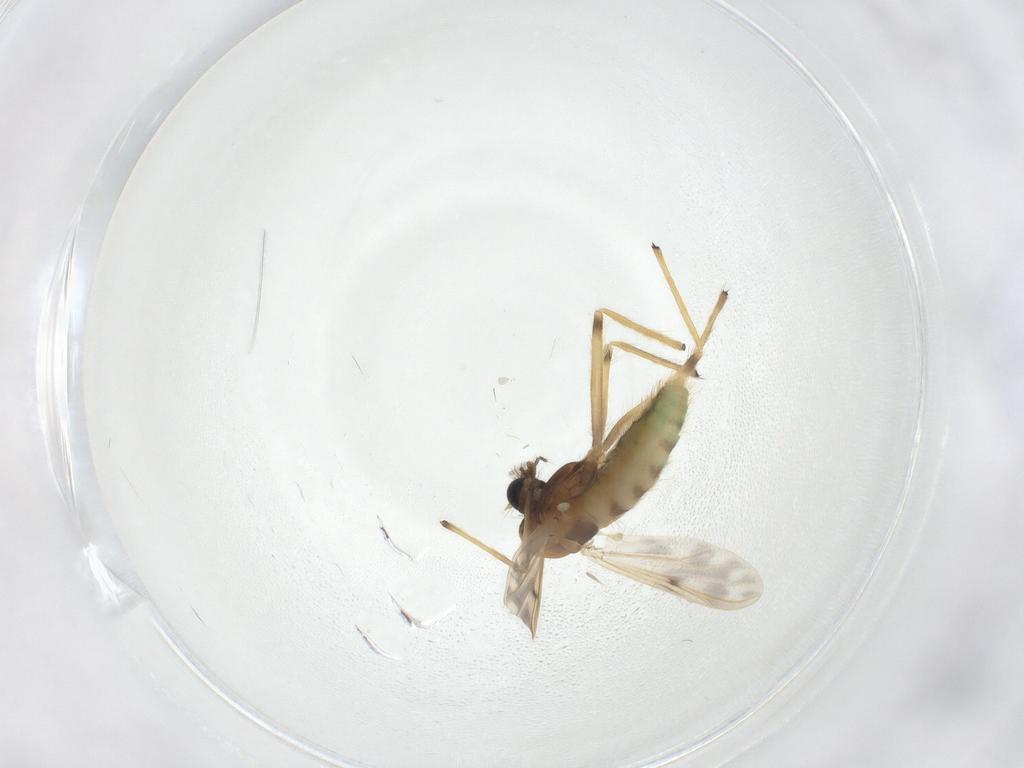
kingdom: Animalia
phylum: Arthropoda
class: Insecta
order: Diptera
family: Chironomidae
